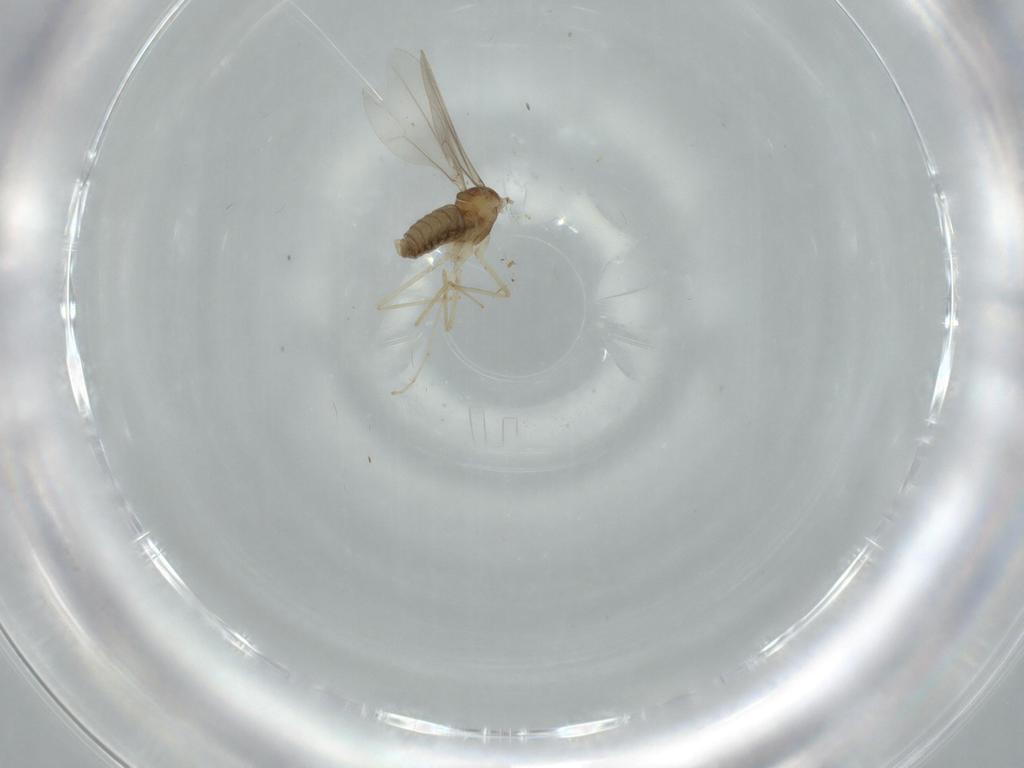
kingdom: Animalia
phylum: Arthropoda
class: Insecta
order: Diptera
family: Cecidomyiidae
